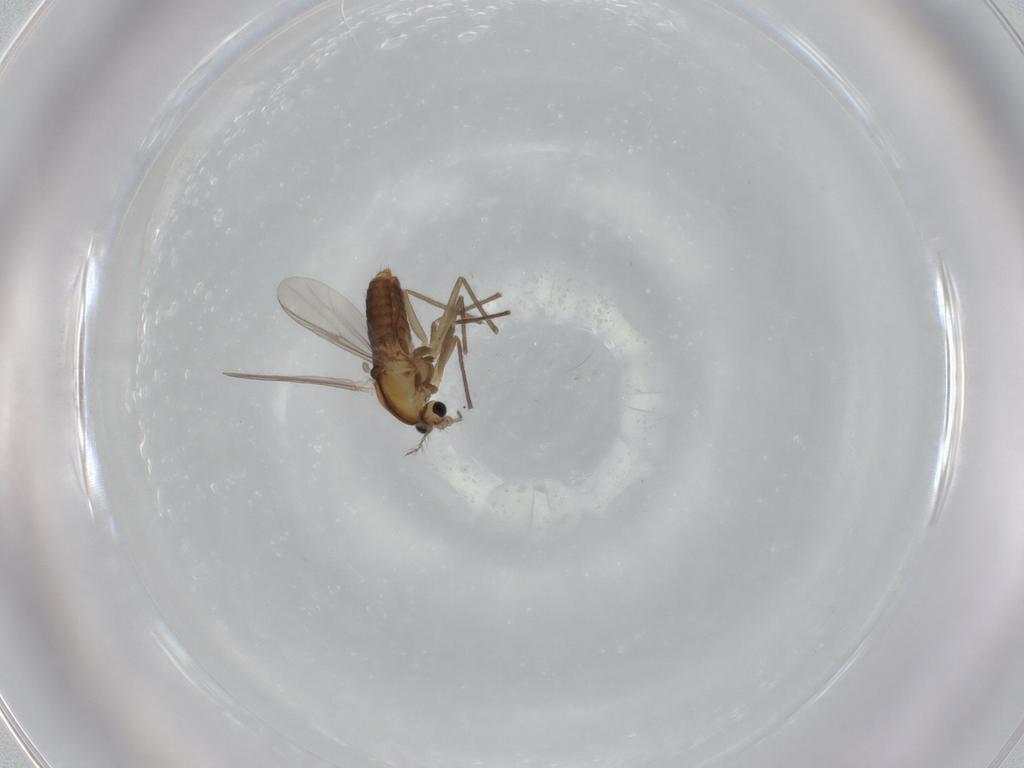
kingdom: Animalia
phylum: Arthropoda
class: Insecta
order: Diptera
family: Chironomidae
